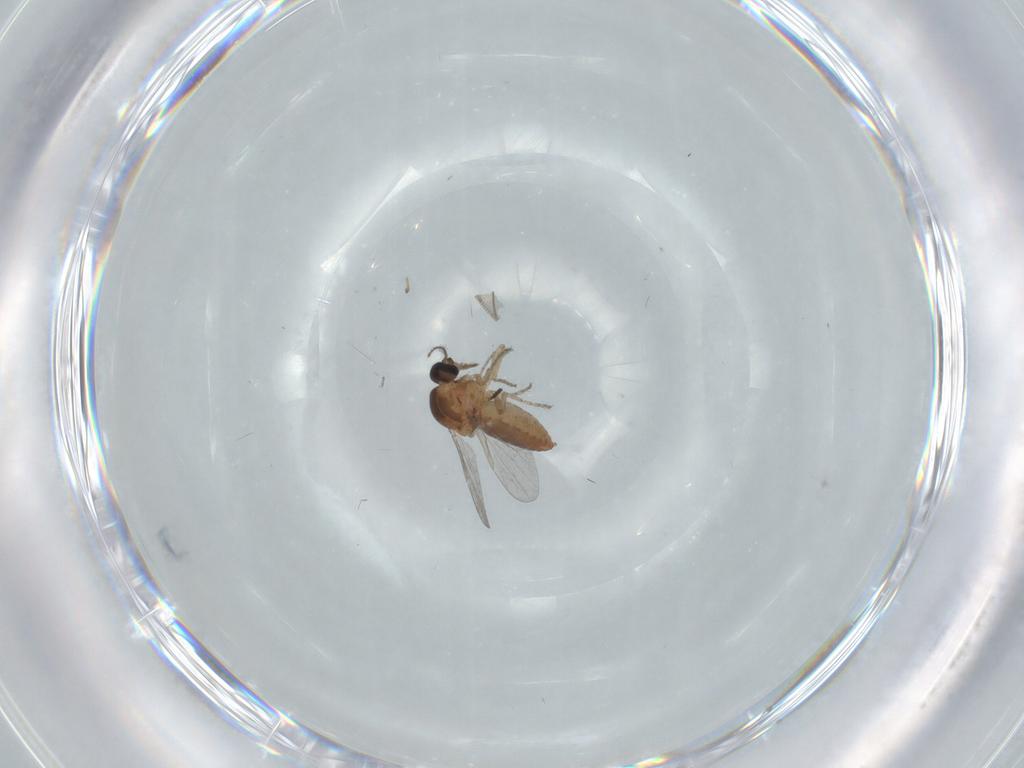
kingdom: Animalia
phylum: Arthropoda
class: Insecta
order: Diptera
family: Ceratopogonidae
